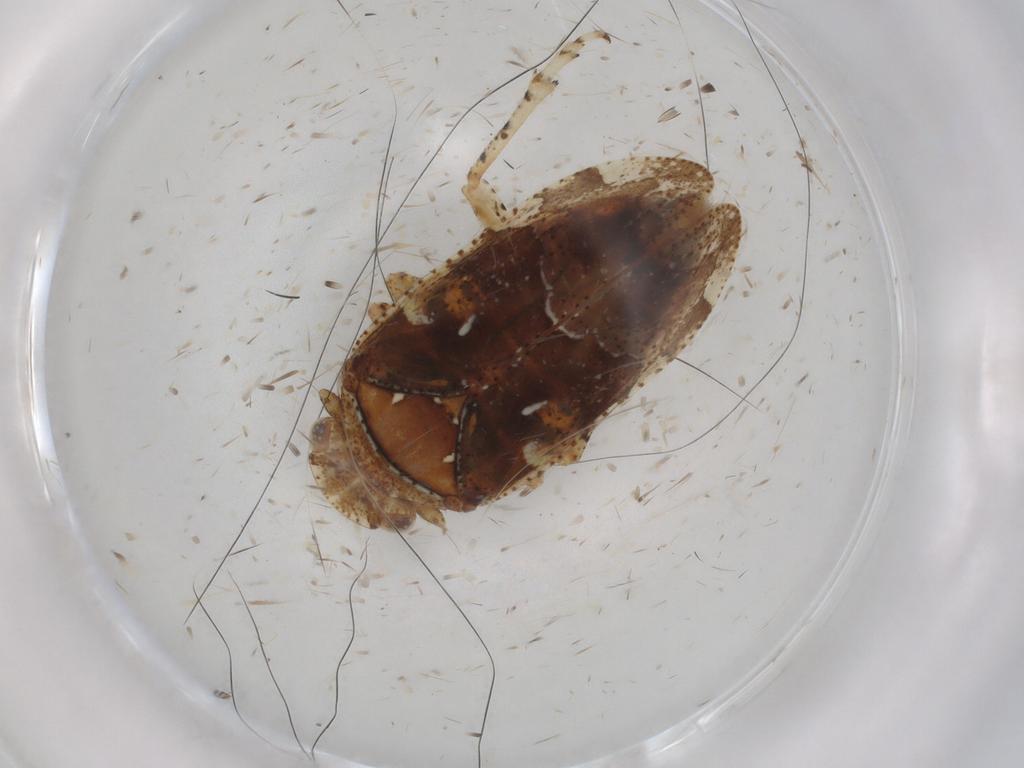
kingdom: Animalia
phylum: Arthropoda
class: Insecta
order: Hemiptera
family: Tettigometridae
